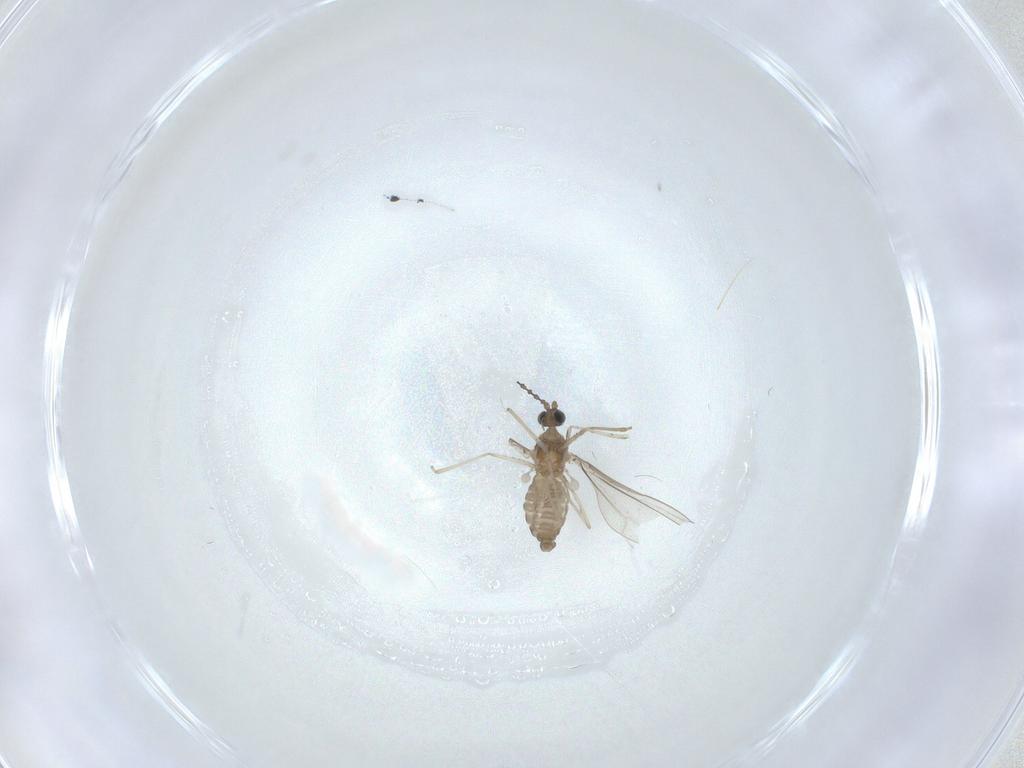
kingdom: Animalia
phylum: Arthropoda
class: Insecta
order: Diptera
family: Cecidomyiidae
